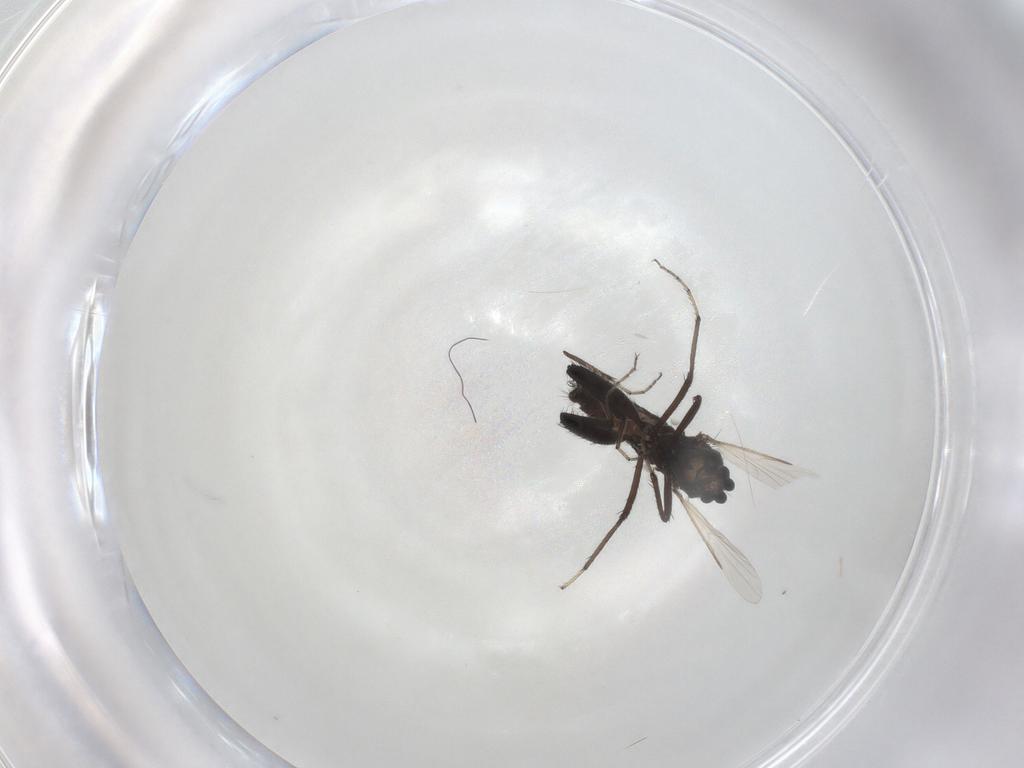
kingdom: Animalia
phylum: Arthropoda
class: Insecta
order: Diptera
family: Ceratopogonidae
